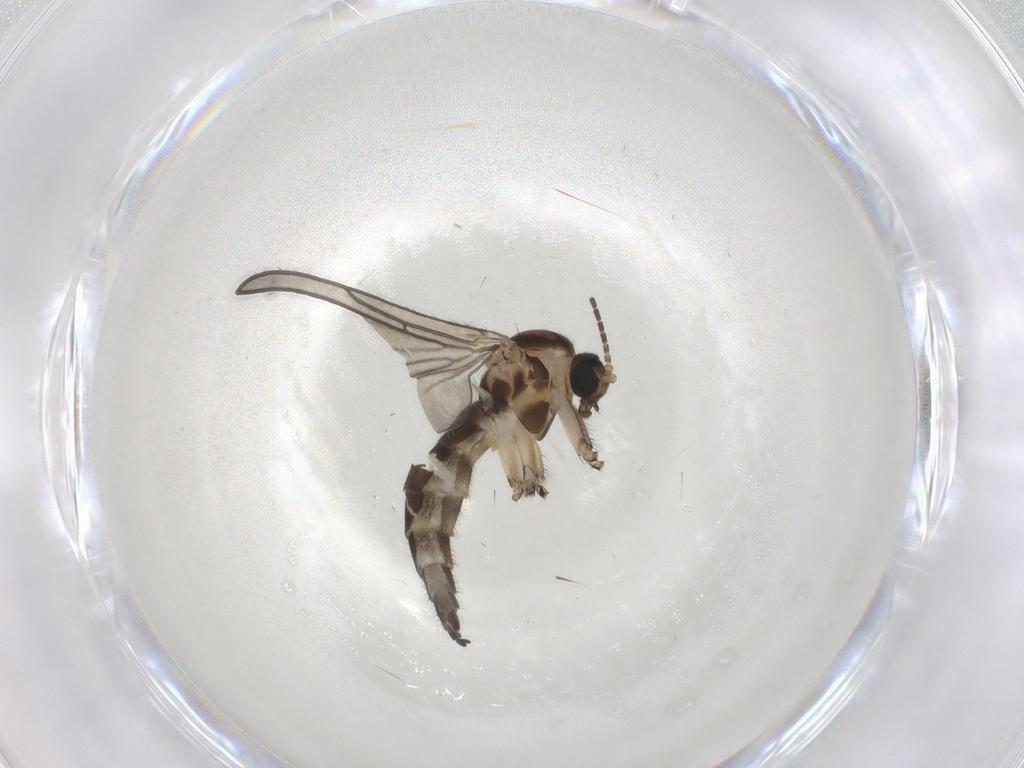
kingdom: Animalia
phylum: Arthropoda
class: Insecta
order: Diptera
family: Sciaridae
